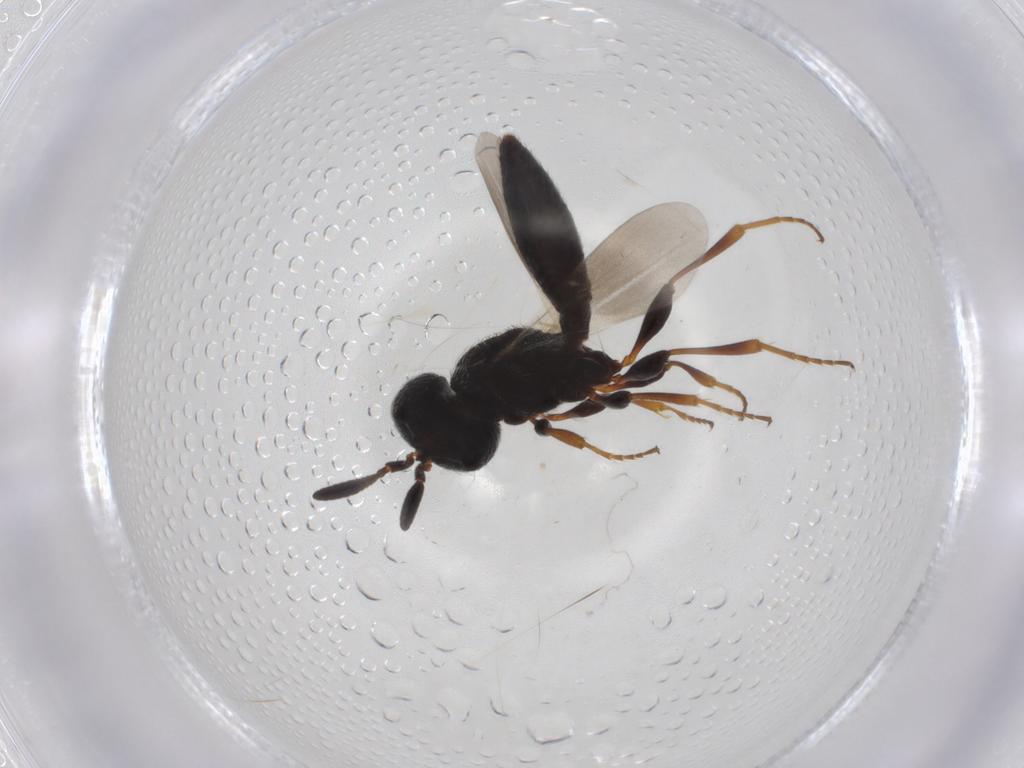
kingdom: Animalia
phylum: Arthropoda
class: Insecta
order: Hymenoptera
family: Scelionidae
